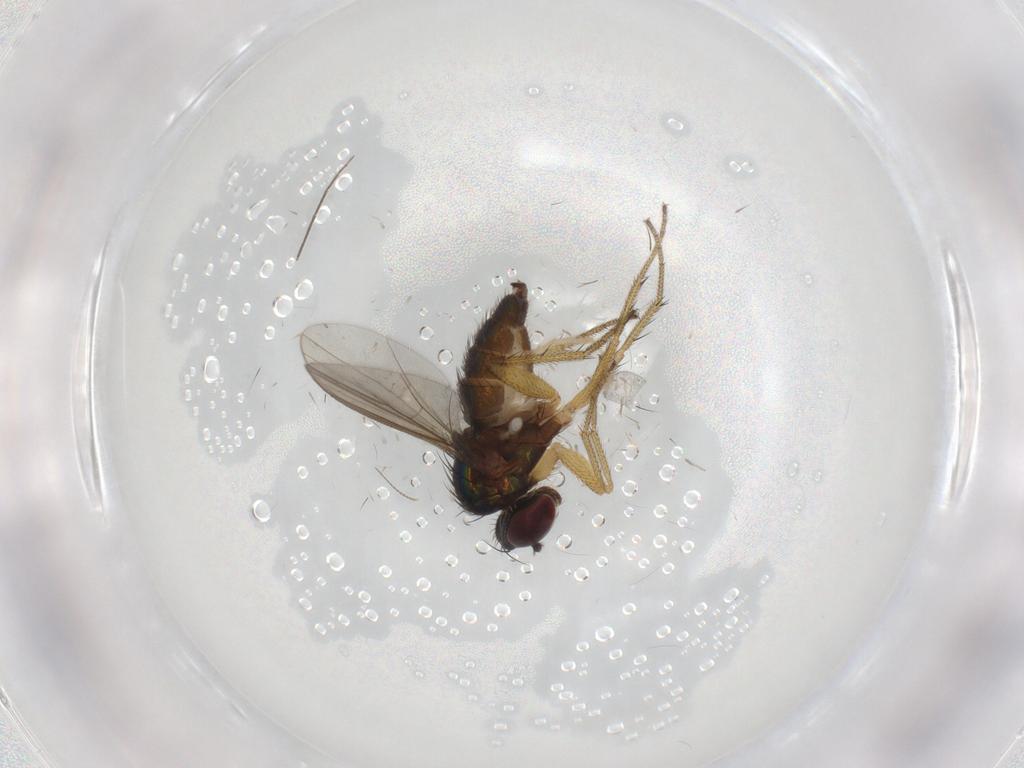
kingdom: Animalia
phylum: Arthropoda
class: Insecta
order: Diptera
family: Chironomidae
